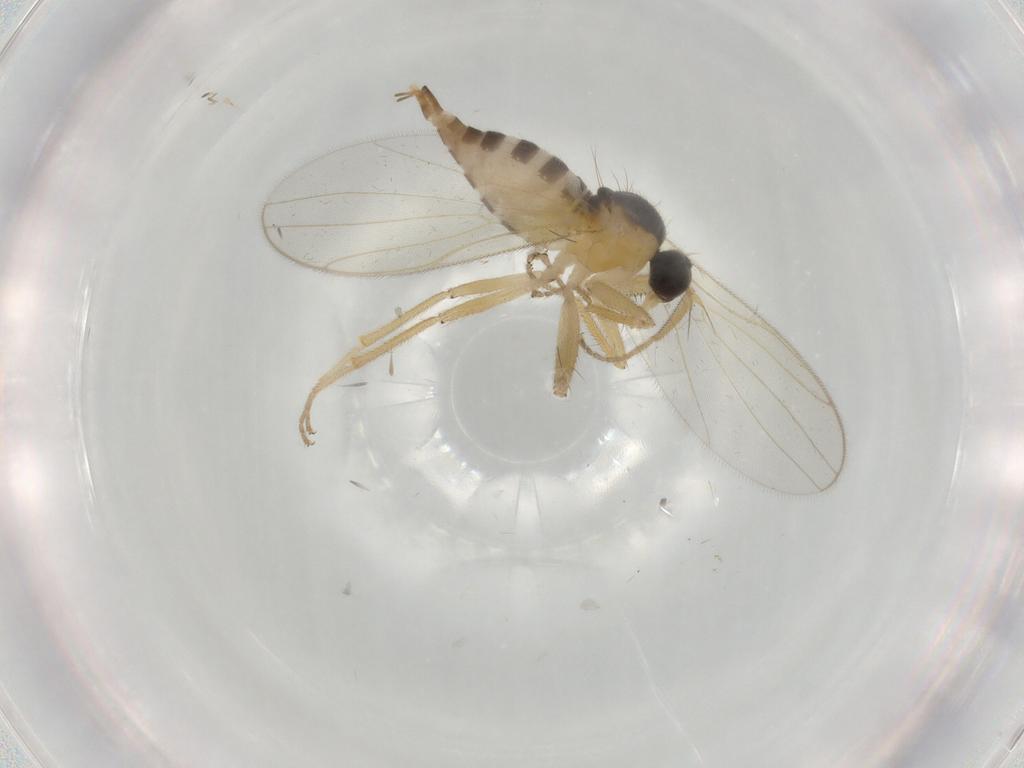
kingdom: Animalia
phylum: Arthropoda
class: Insecta
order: Diptera
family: Hybotidae
